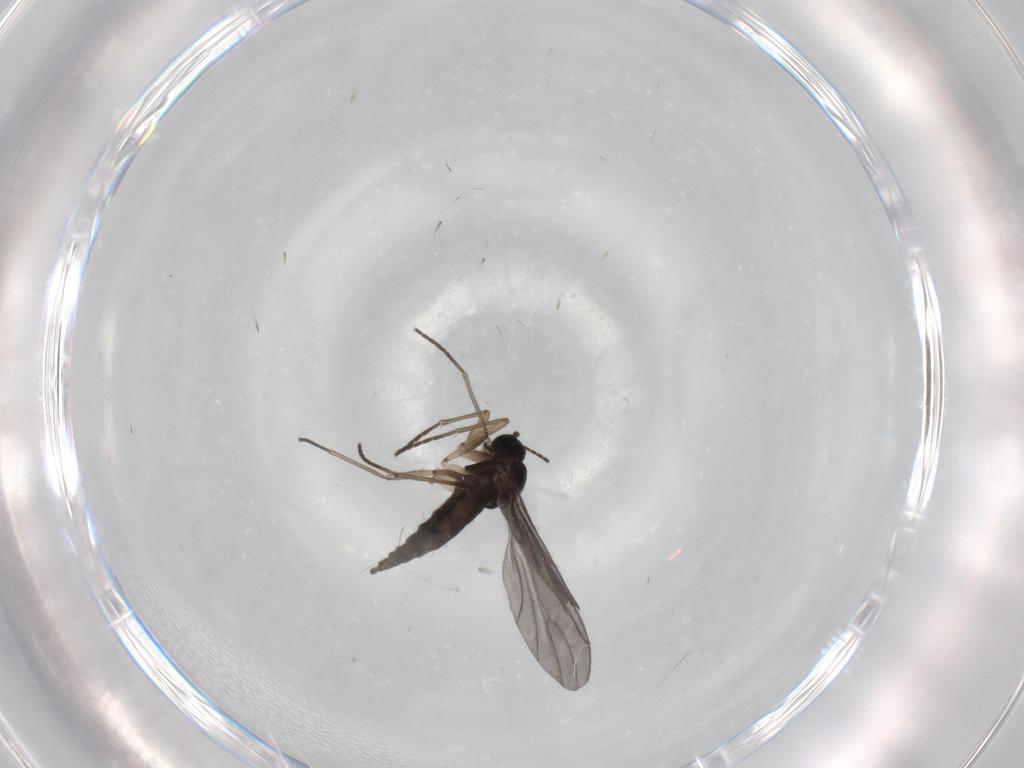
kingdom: Animalia
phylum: Arthropoda
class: Insecta
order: Diptera
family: Sciaridae
